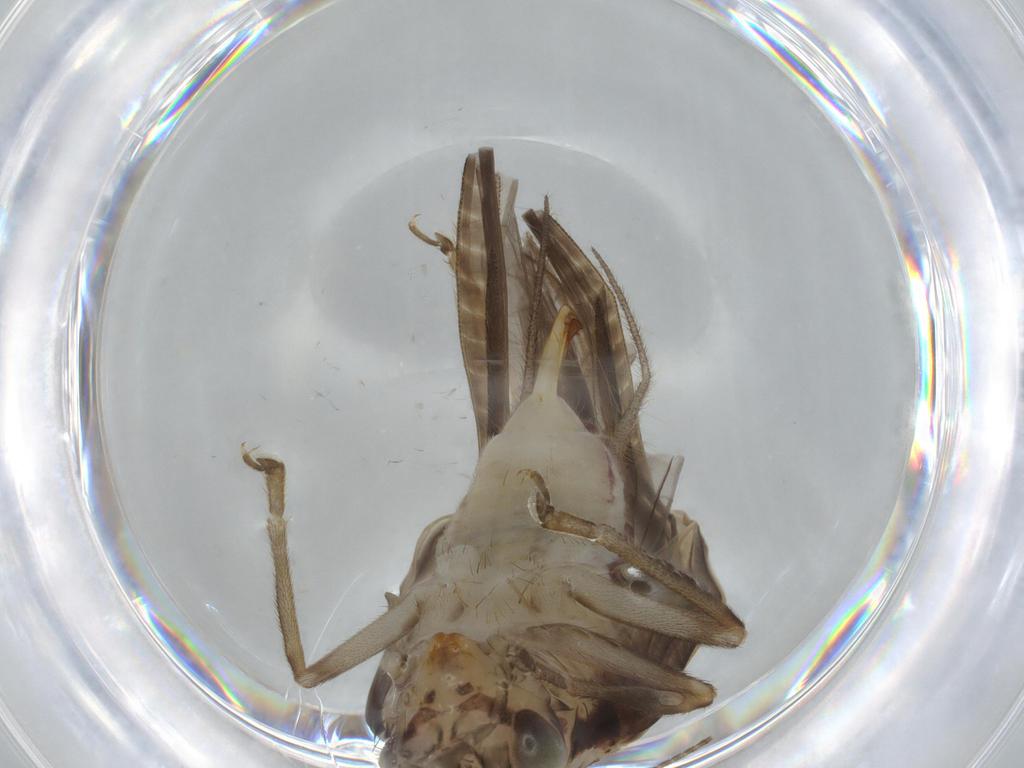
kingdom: Animalia
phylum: Arthropoda
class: Insecta
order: Orthoptera
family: Trigonidiidae
